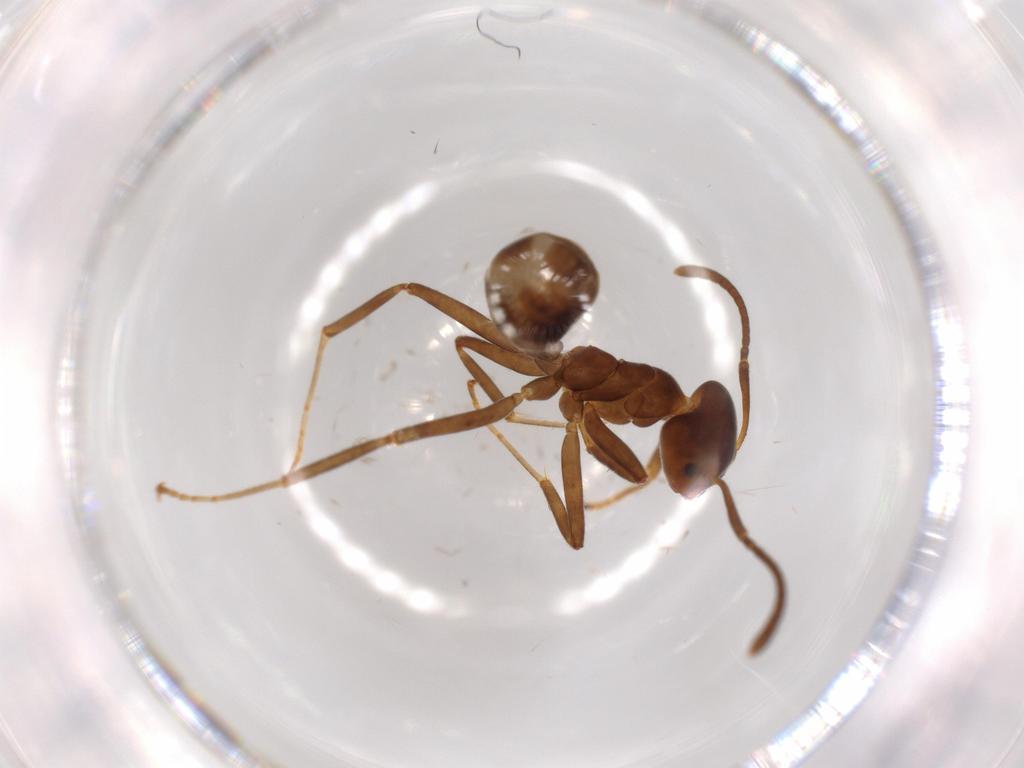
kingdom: Animalia
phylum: Arthropoda
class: Insecta
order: Hymenoptera
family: Formicidae
